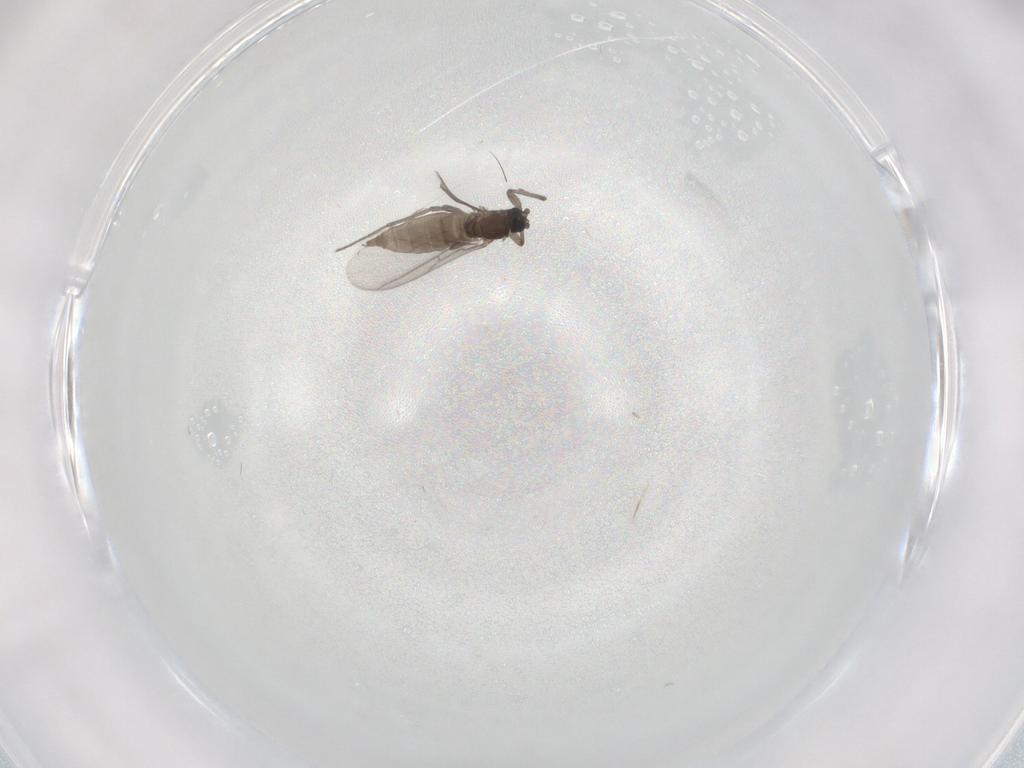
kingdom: Animalia
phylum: Arthropoda
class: Insecta
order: Diptera
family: Sciaridae
